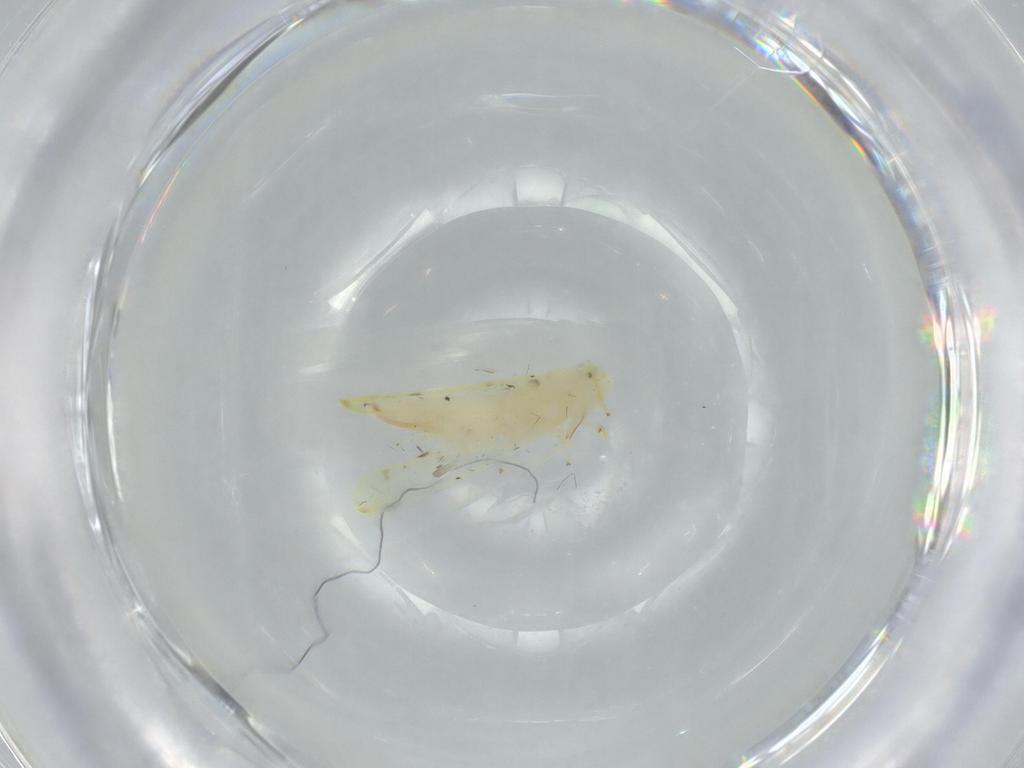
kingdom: Animalia
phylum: Arthropoda
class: Insecta
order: Hemiptera
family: Cicadellidae
